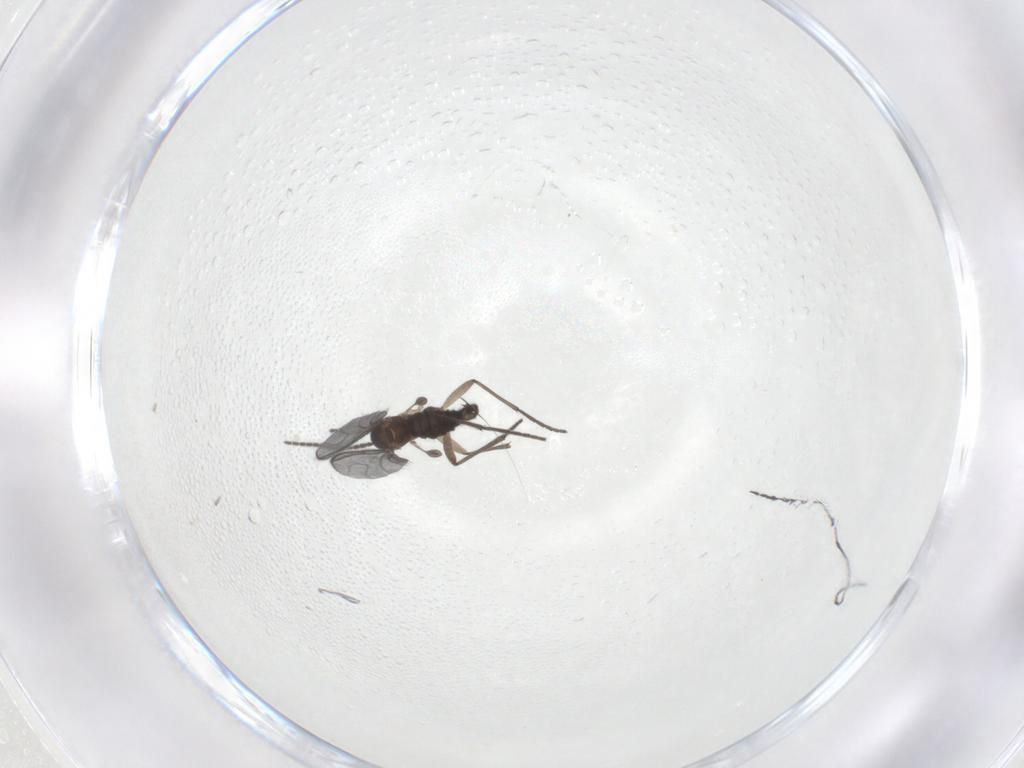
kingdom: Animalia
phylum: Arthropoda
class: Insecta
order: Diptera
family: Sciaridae
